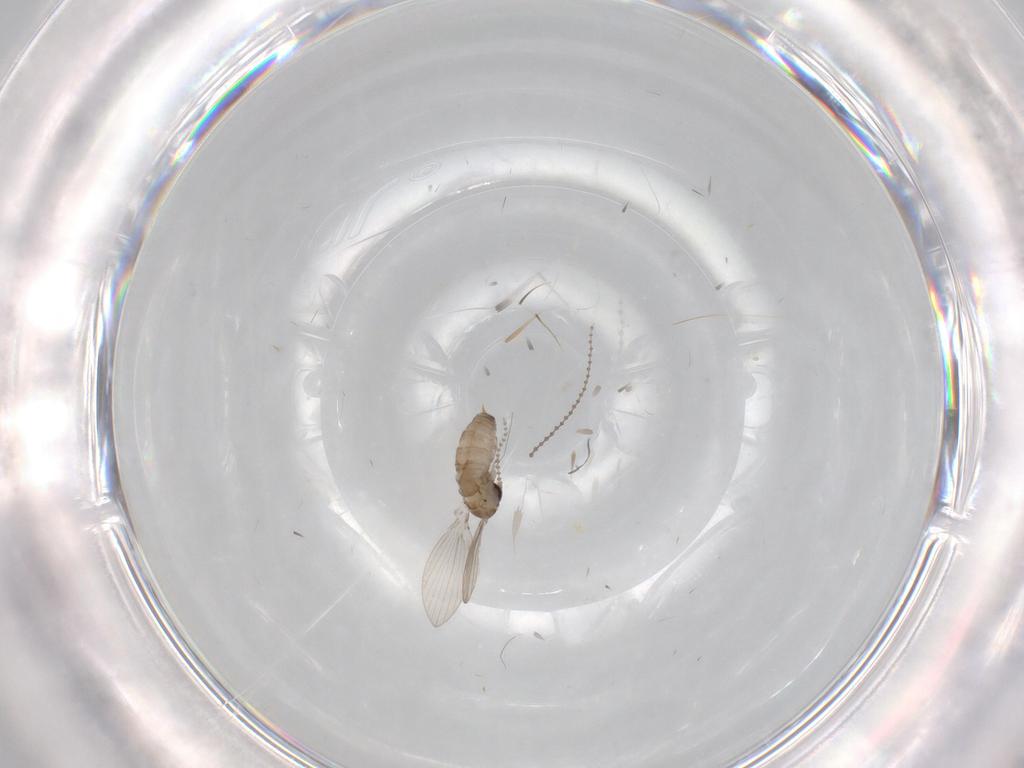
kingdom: Animalia
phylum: Arthropoda
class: Insecta
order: Diptera
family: Psychodidae
